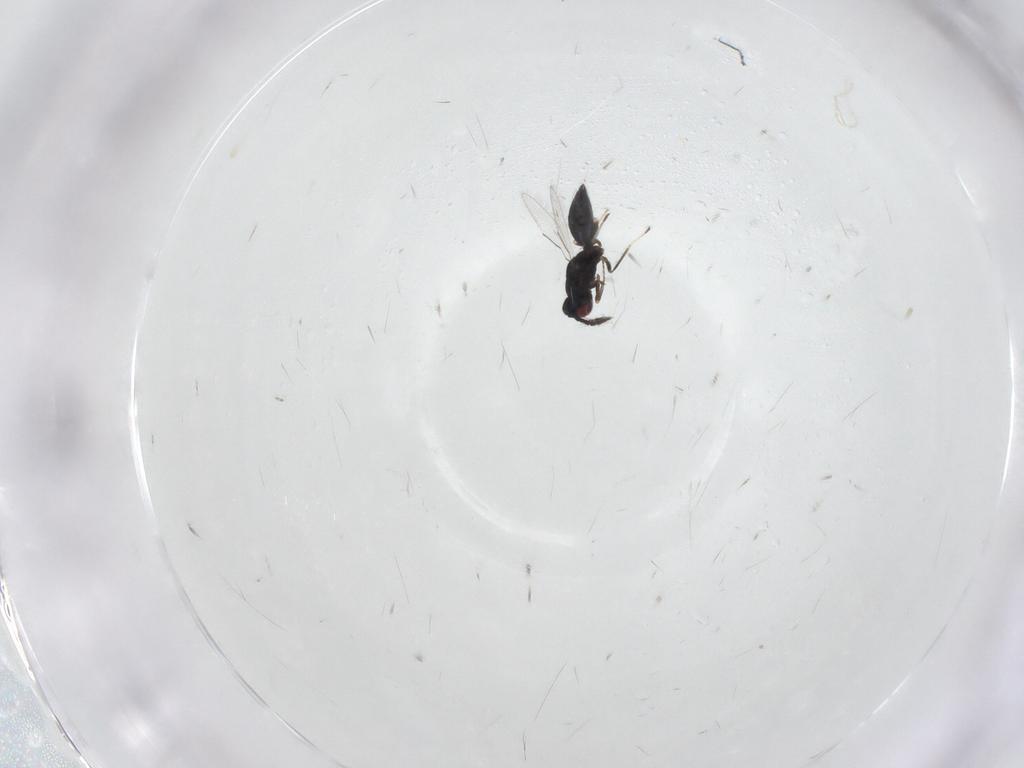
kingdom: Animalia
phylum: Arthropoda
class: Insecta
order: Hymenoptera
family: Eulophidae
